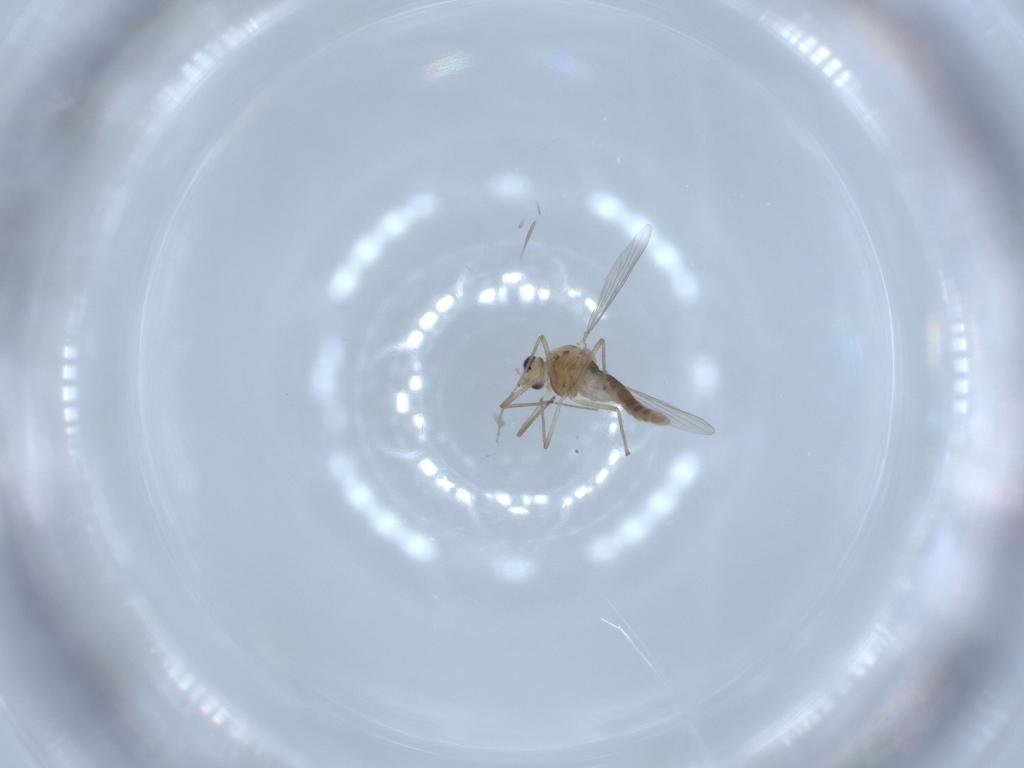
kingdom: Animalia
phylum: Arthropoda
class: Insecta
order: Diptera
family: Chironomidae
